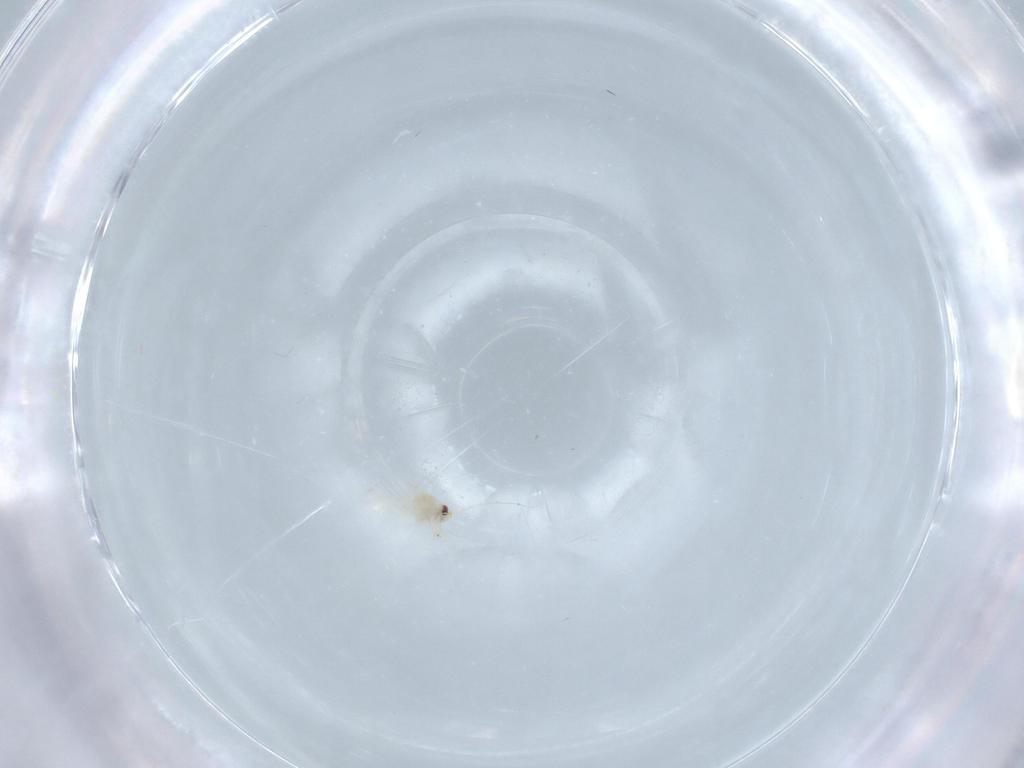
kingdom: Animalia
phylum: Arthropoda
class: Insecta
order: Hemiptera
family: Aleyrodidae
